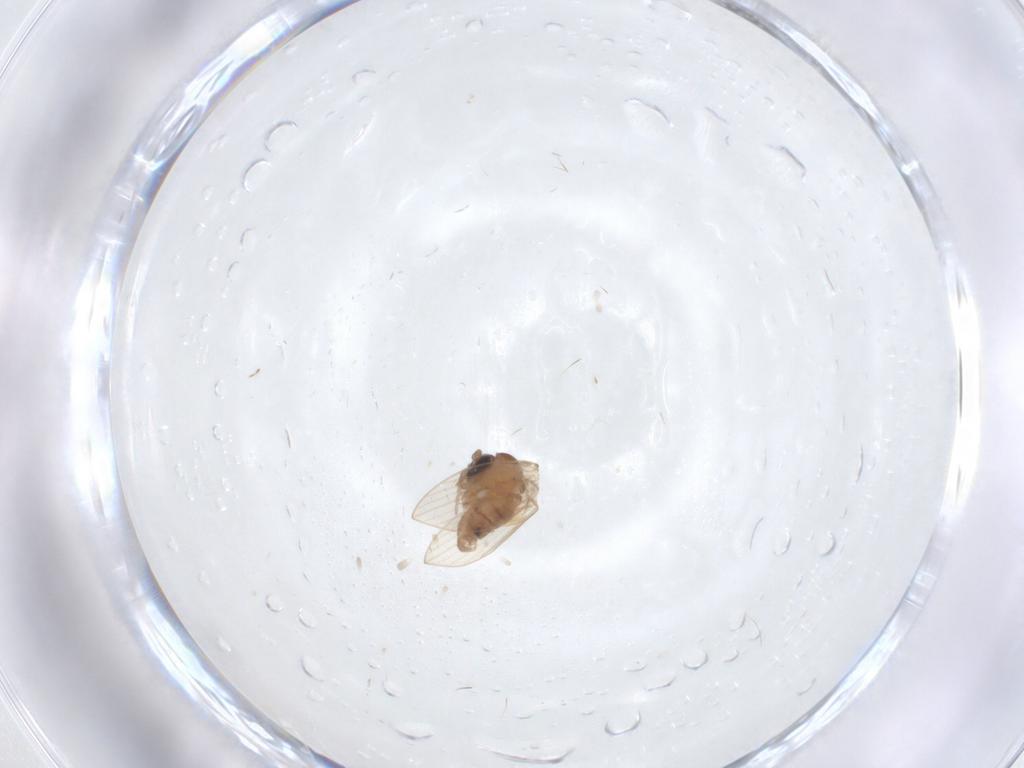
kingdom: Animalia
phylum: Arthropoda
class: Insecta
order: Diptera
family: Psychodidae
